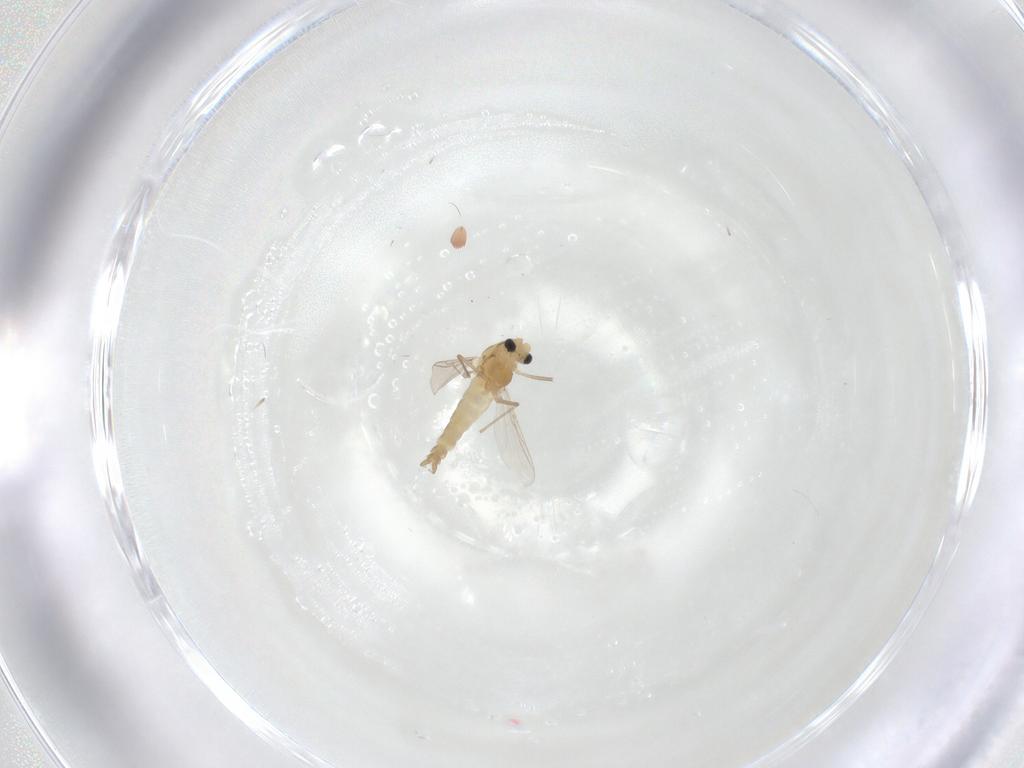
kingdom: Animalia
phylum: Arthropoda
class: Insecta
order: Diptera
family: Chironomidae
